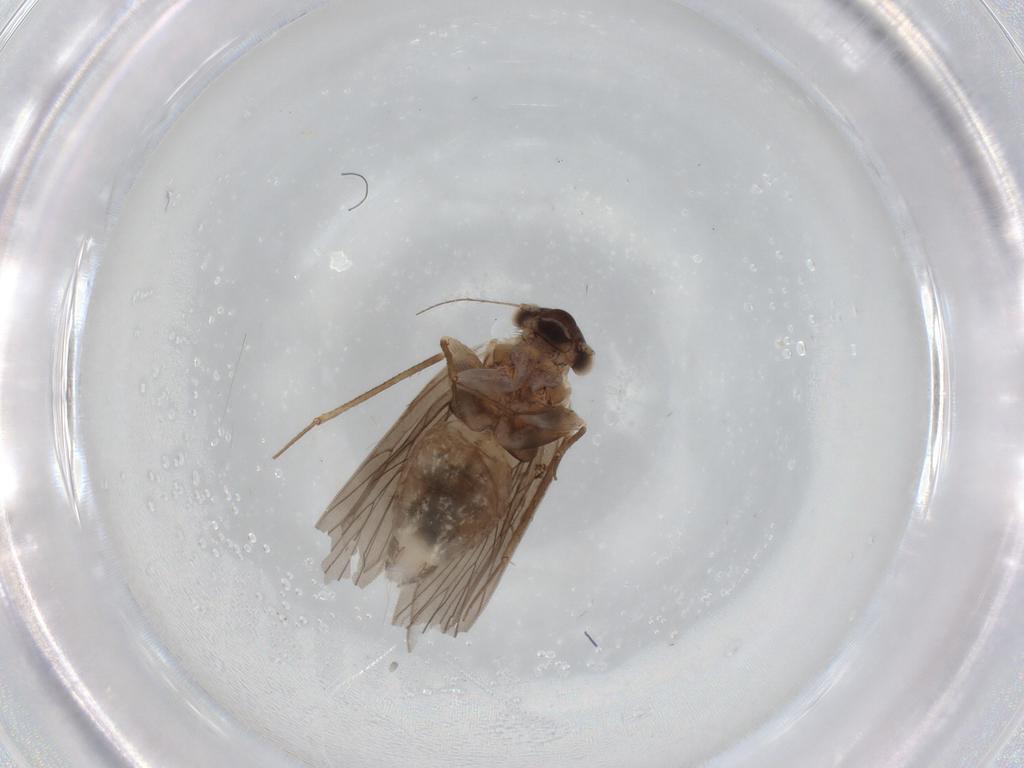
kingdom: Animalia
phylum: Arthropoda
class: Insecta
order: Psocodea
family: Lepidopsocidae
